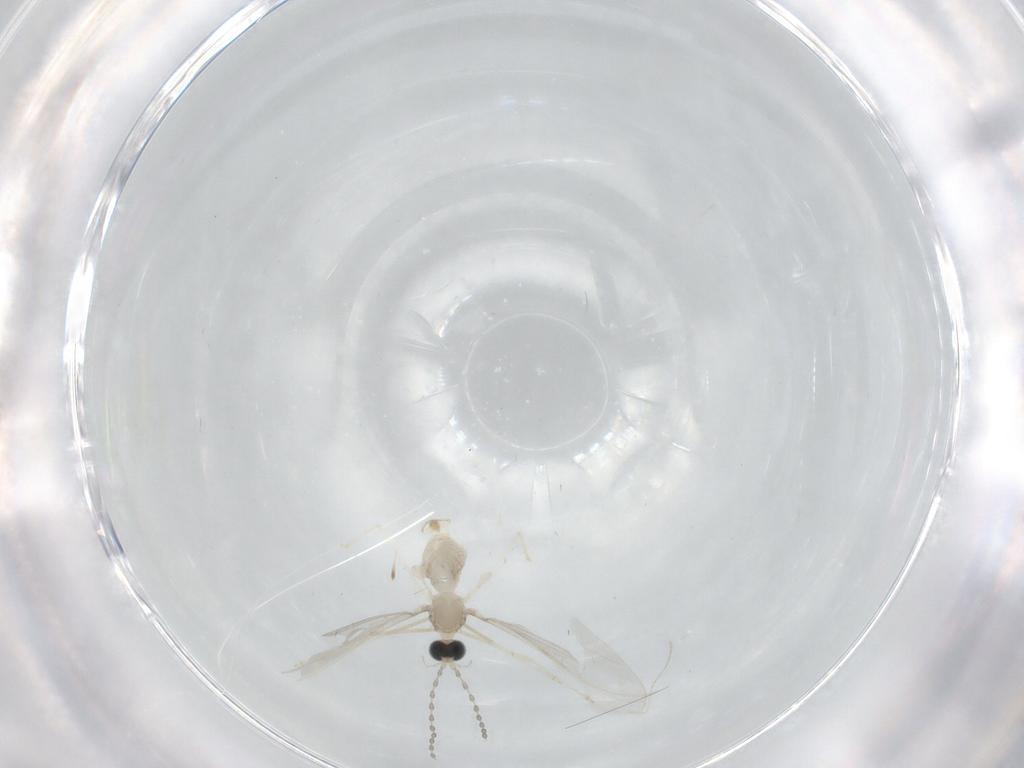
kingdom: Animalia
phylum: Arthropoda
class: Insecta
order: Diptera
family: Cecidomyiidae
